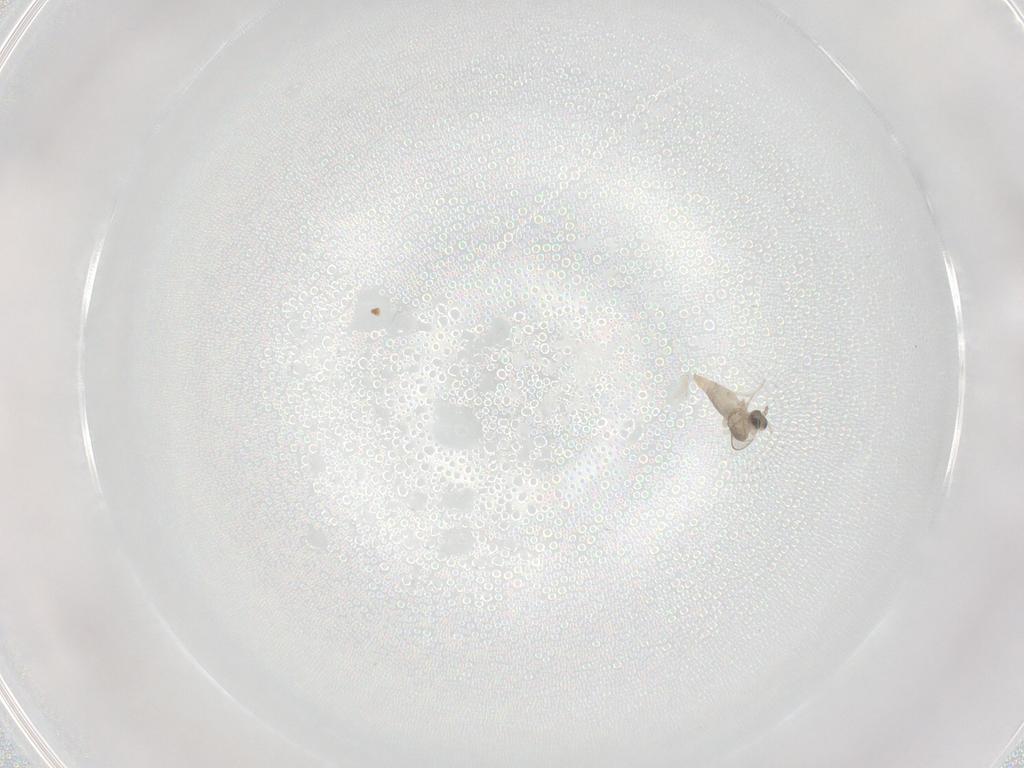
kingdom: Animalia
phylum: Arthropoda
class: Insecta
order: Diptera
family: Cecidomyiidae
